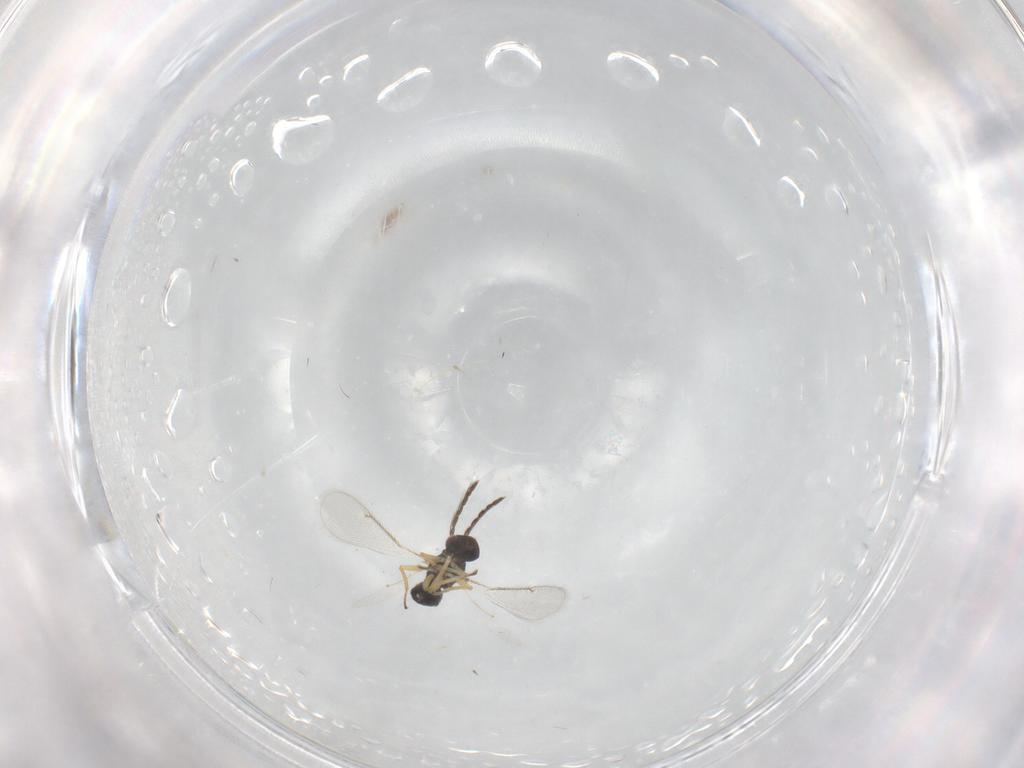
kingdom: Animalia
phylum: Arthropoda
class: Insecta
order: Hymenoptera
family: Eulophidae
